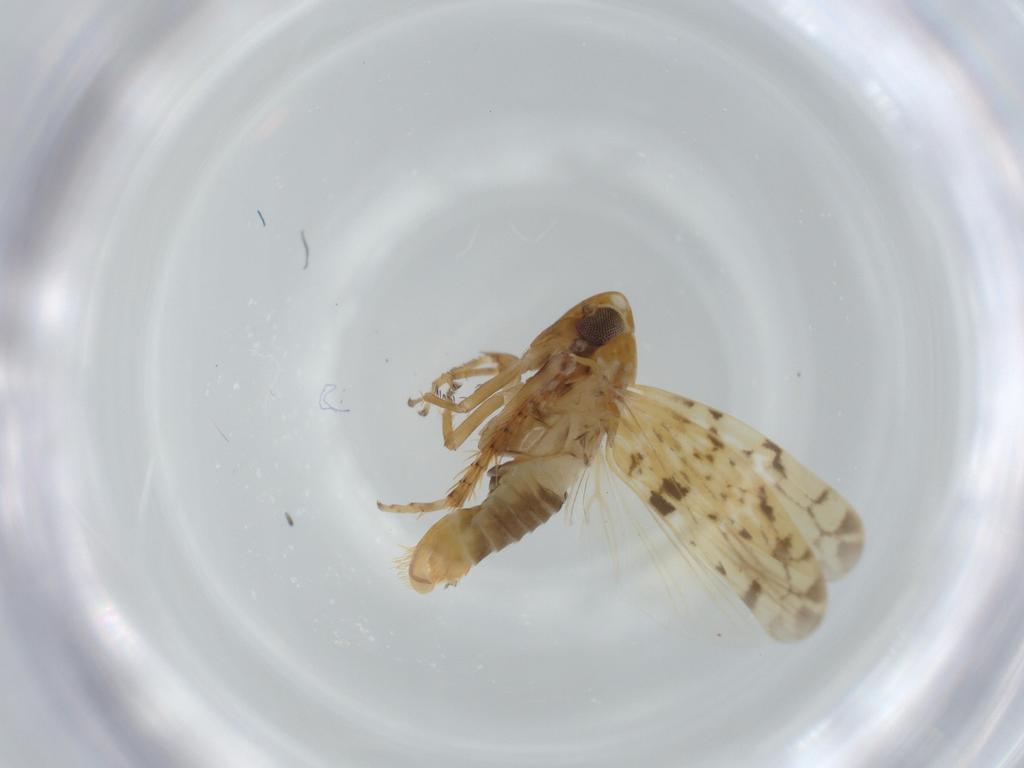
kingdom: Animalia
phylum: Arthropoda
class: Insecta
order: Hemiptera
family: Cicadellidae
